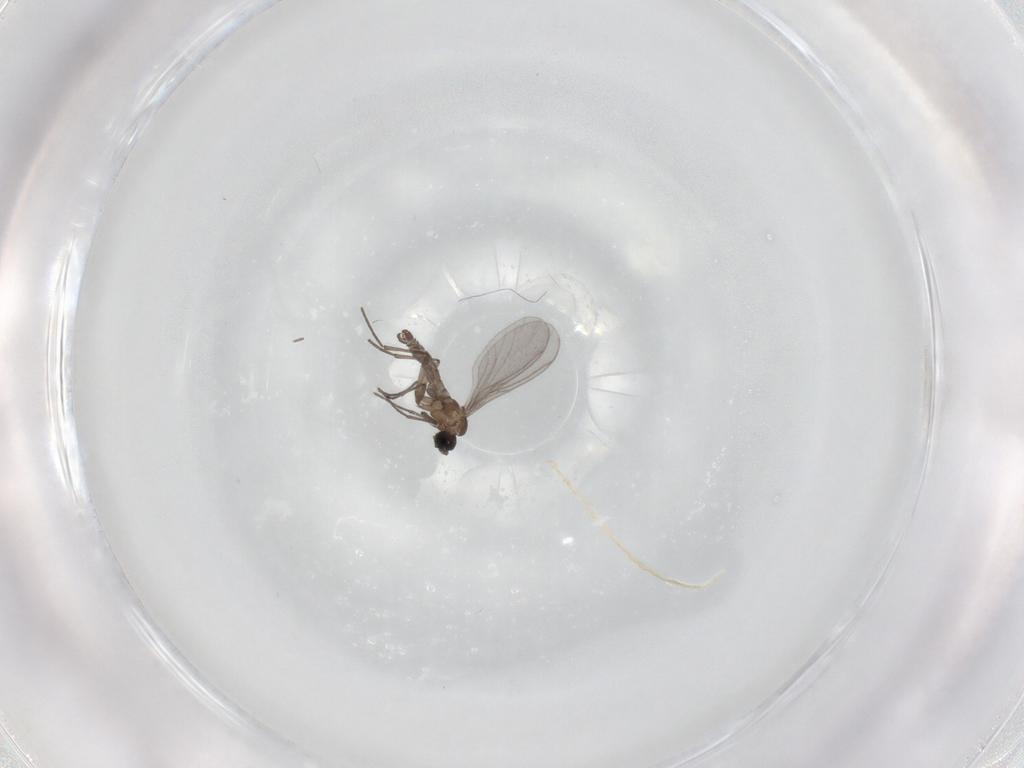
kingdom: Animalia
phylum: Arthropoda
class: Insecta
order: Diptera
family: Sciaridae
